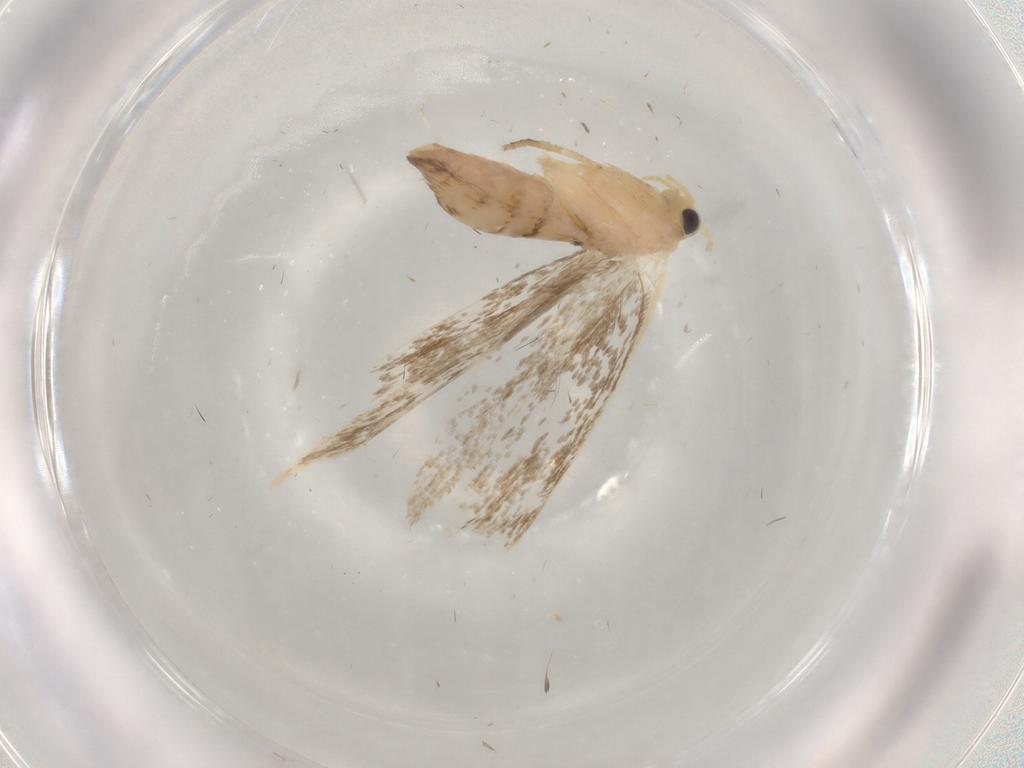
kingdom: Animalia
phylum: Arthropoda
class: Insecta
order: Lepidoptera
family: Dryadaulidae
